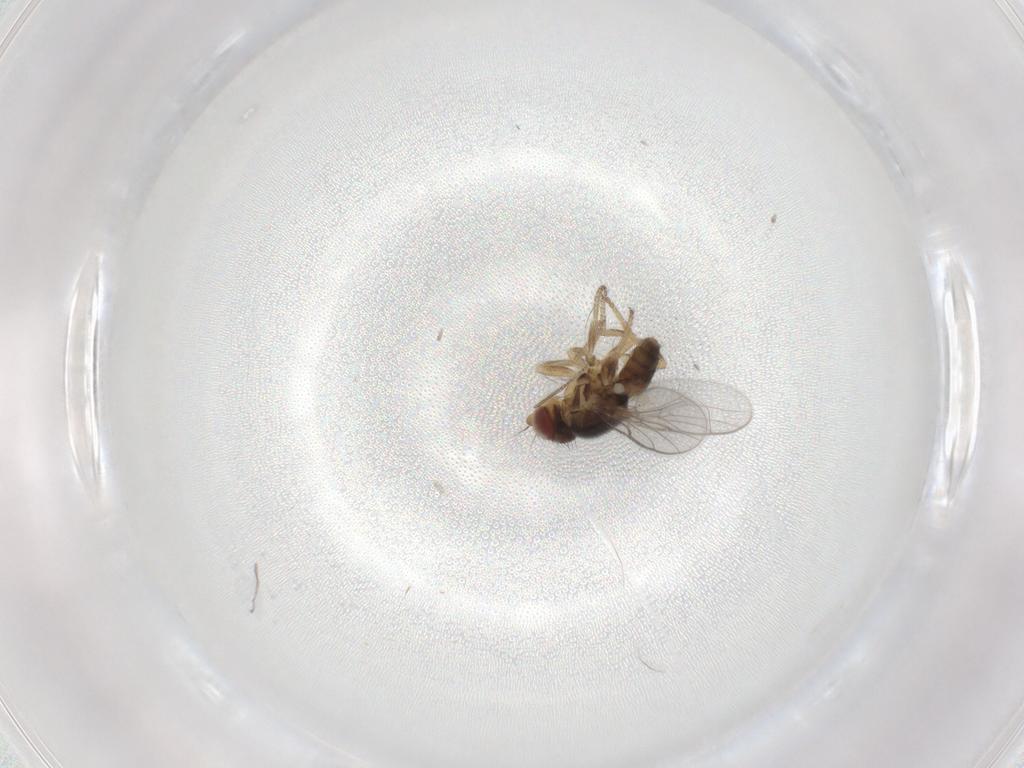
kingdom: Animalia
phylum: Arthropoda
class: Insecta
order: Diptera
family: Chloropidae
